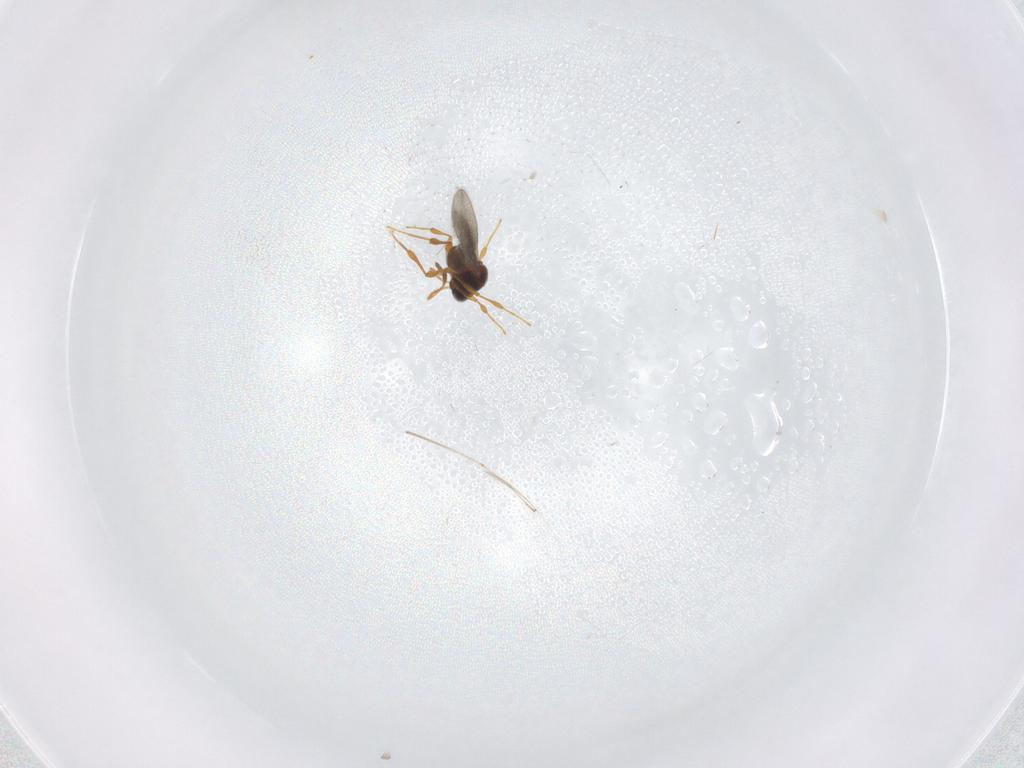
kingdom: Animalia
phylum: Arthropoda
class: Insecta
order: Hymenoptera
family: Platygastridae
